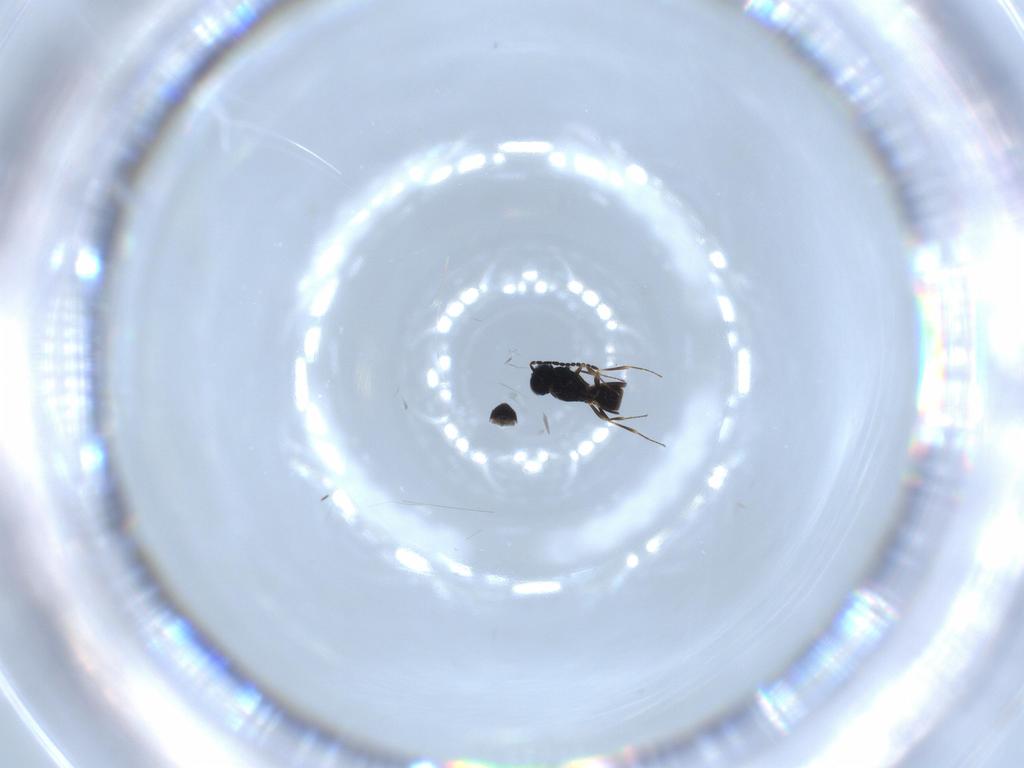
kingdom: Animalia
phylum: Arthropoda
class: Insecta
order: Hymenoptera
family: Scelionidae
